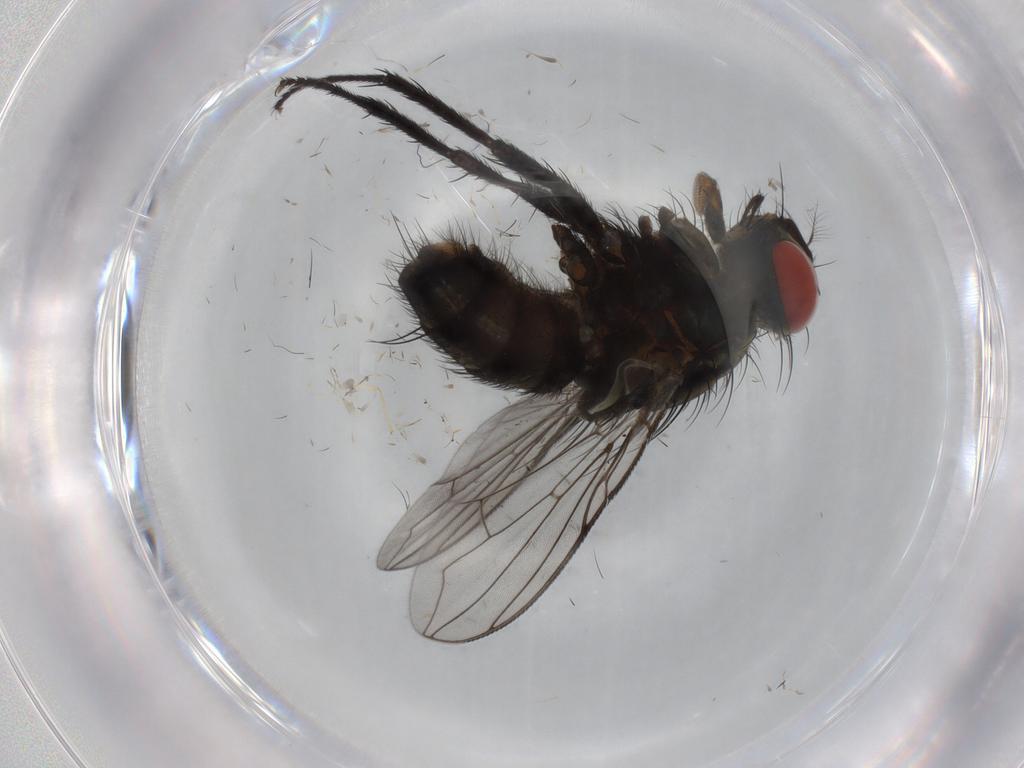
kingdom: Animalia
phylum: Arthropoda
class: Insecta
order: Diptera
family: Sarcophagidae
